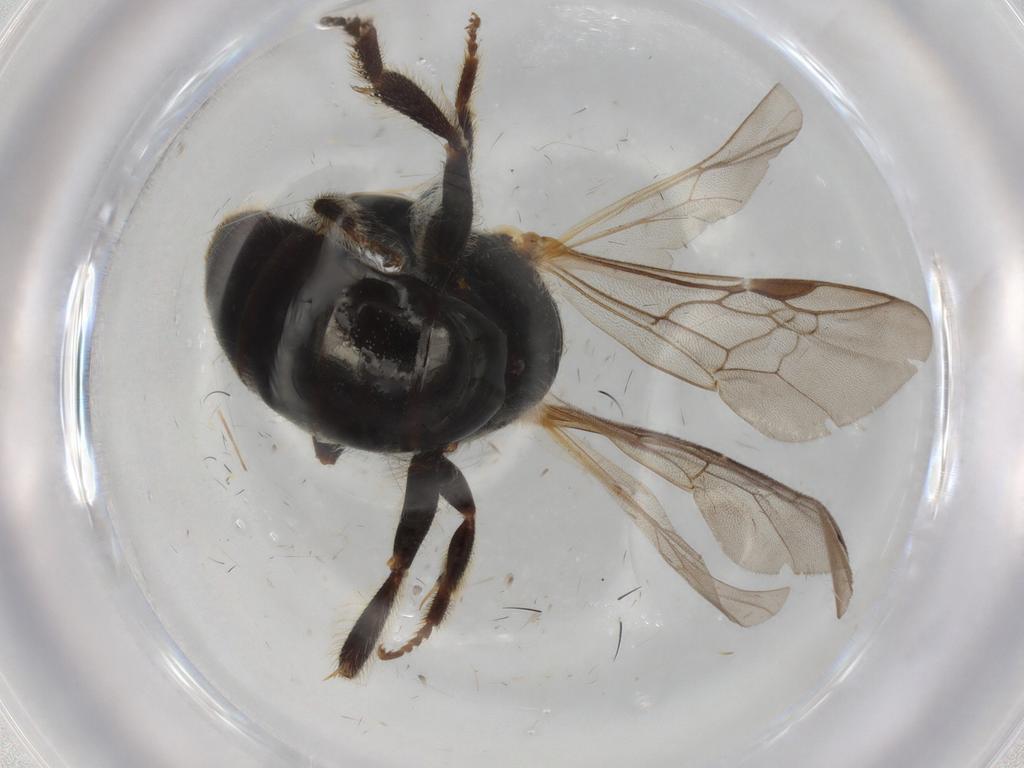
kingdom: Animalia
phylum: Arthropoda
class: Insecta
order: Hymenoptera
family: Halictidae
